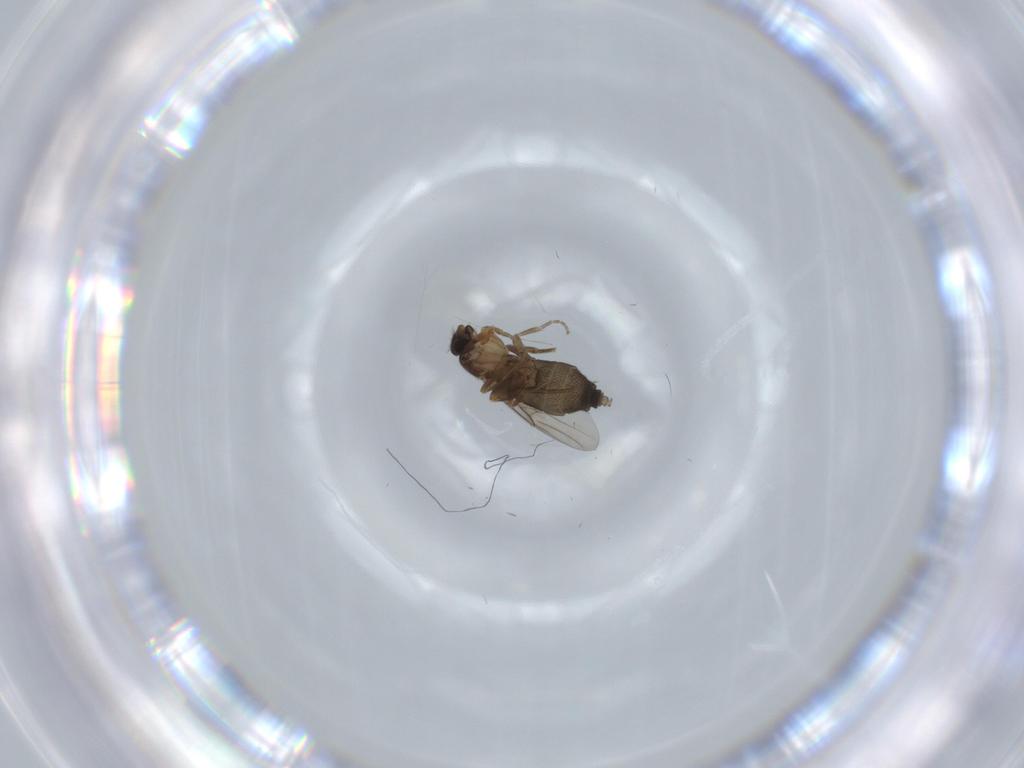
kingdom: Animalia
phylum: Arthropoda
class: Insecta
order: Diptera
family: Phoridae
